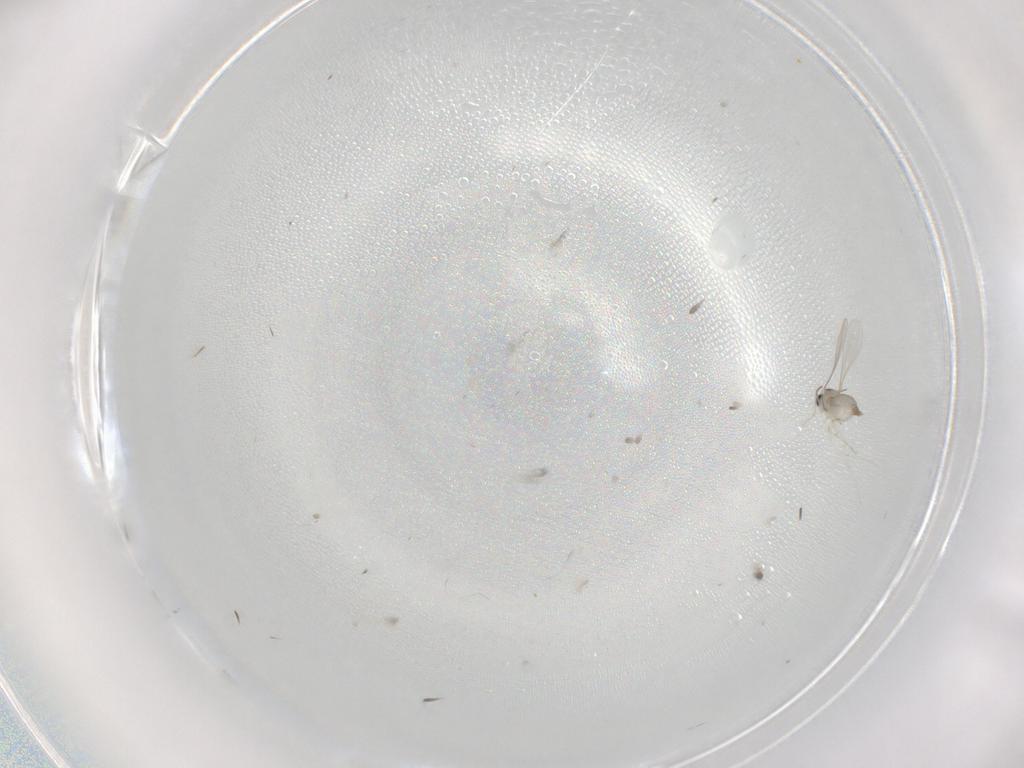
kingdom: Animalia
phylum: Arthropoda
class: Insecta
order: Diptera
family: Cecidomyiidae
